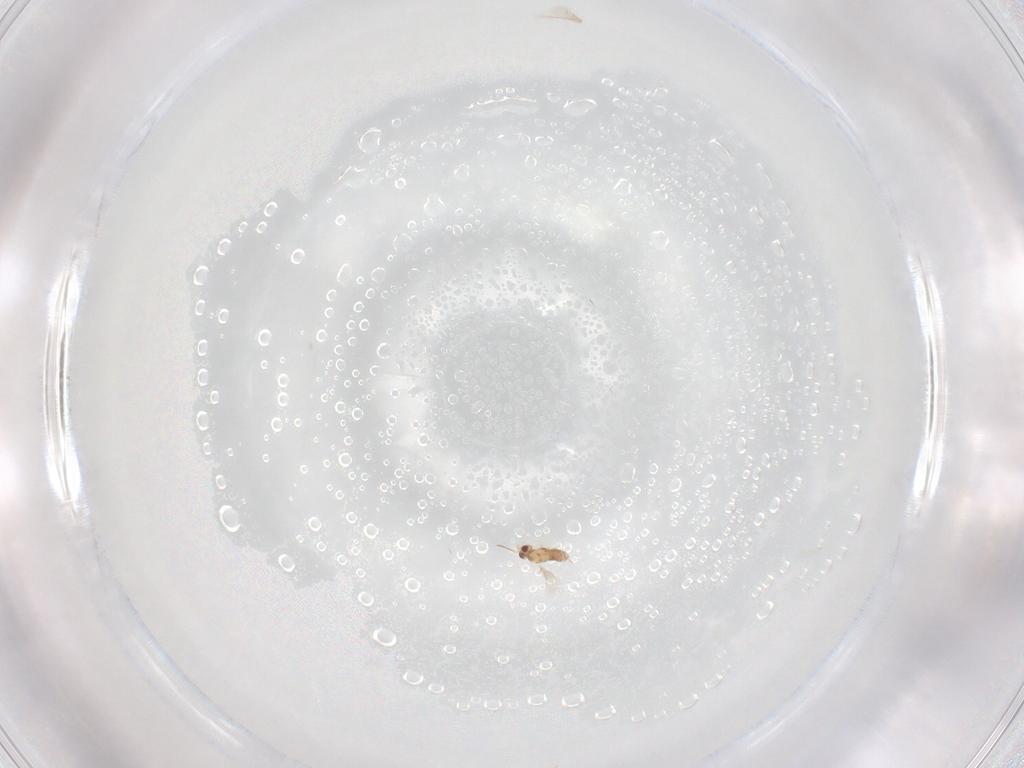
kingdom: Animalia
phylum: Arthropoda
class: Insecta
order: Hymenoptera
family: Aphelinidae
